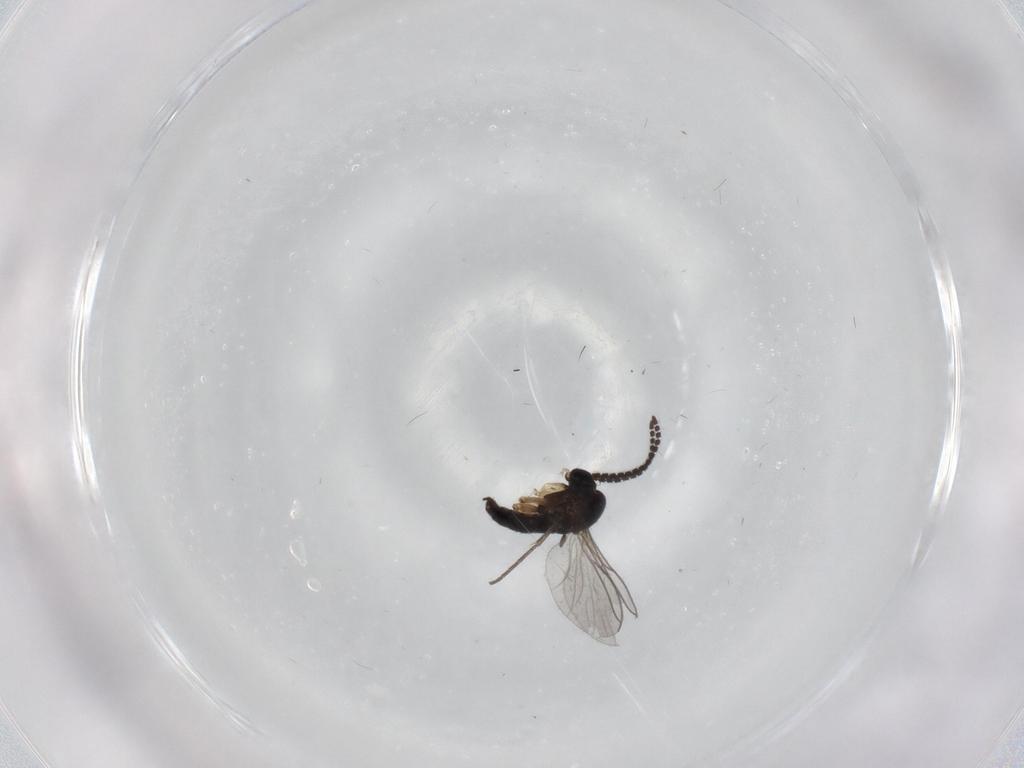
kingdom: Animalia
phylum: Arthropoda
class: Insecta
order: Diptera
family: Sciaridae
